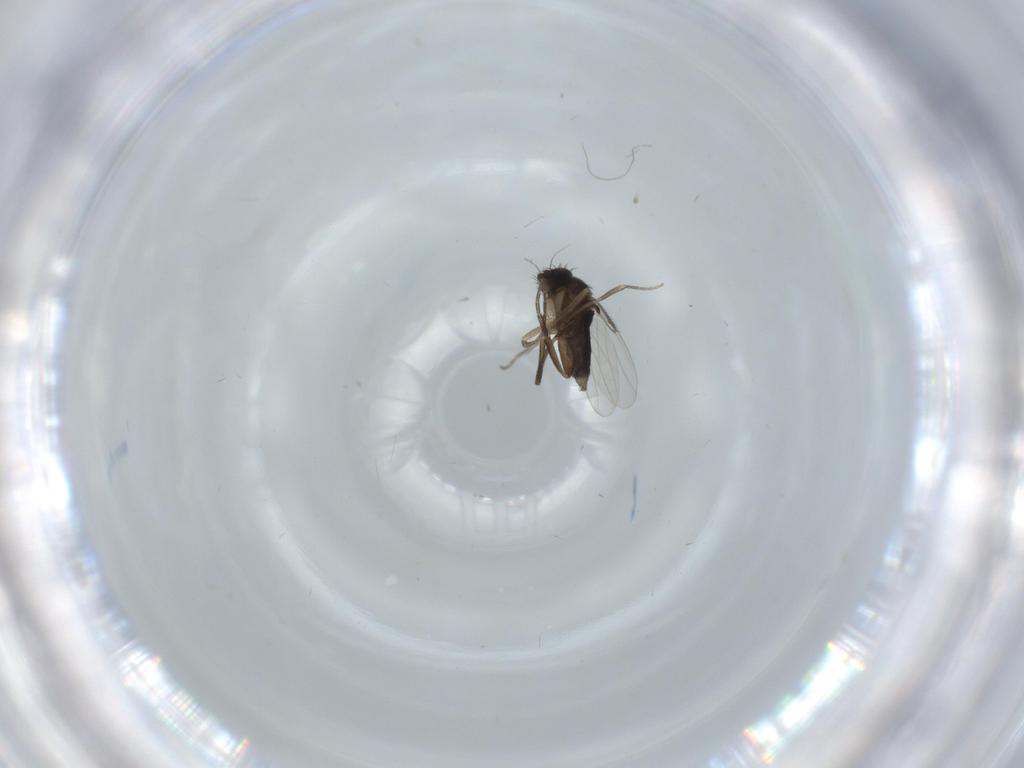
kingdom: Animalia
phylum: Arthropoda
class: Insecta
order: Diptera
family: Phoridae
